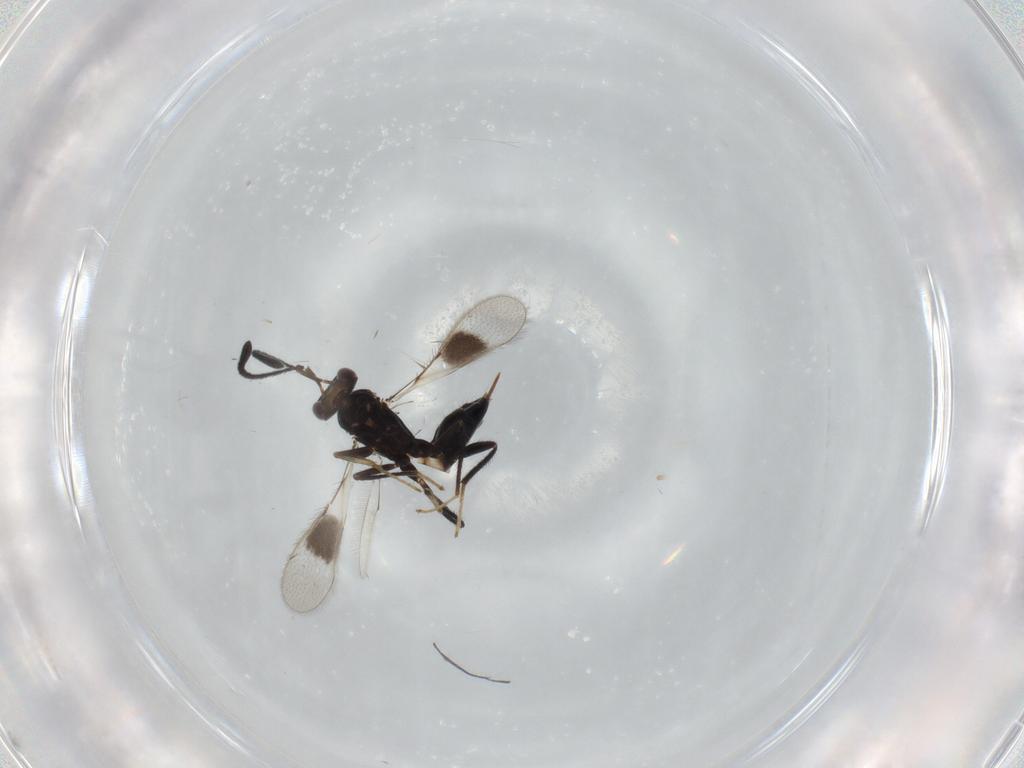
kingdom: Animalia
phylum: Arthropoda
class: Insecta
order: Hymenoptera
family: Mymaridae
